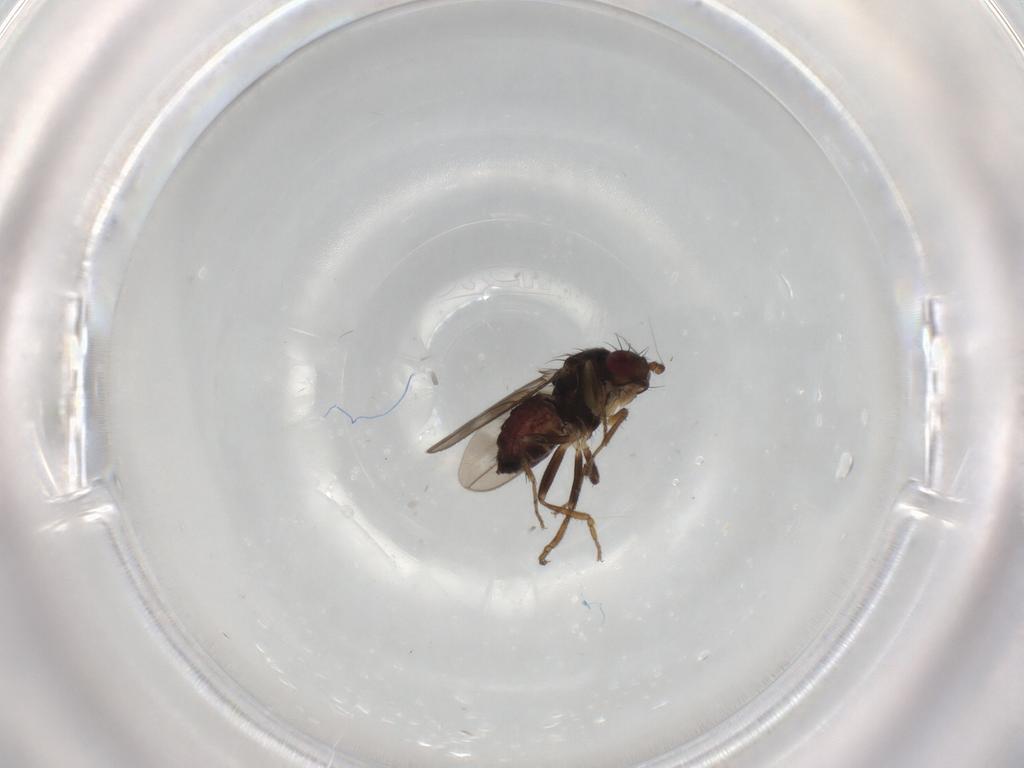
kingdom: Animalia
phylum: Arthropoda
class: Insecta
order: Diptera
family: Sphaeroceridae
